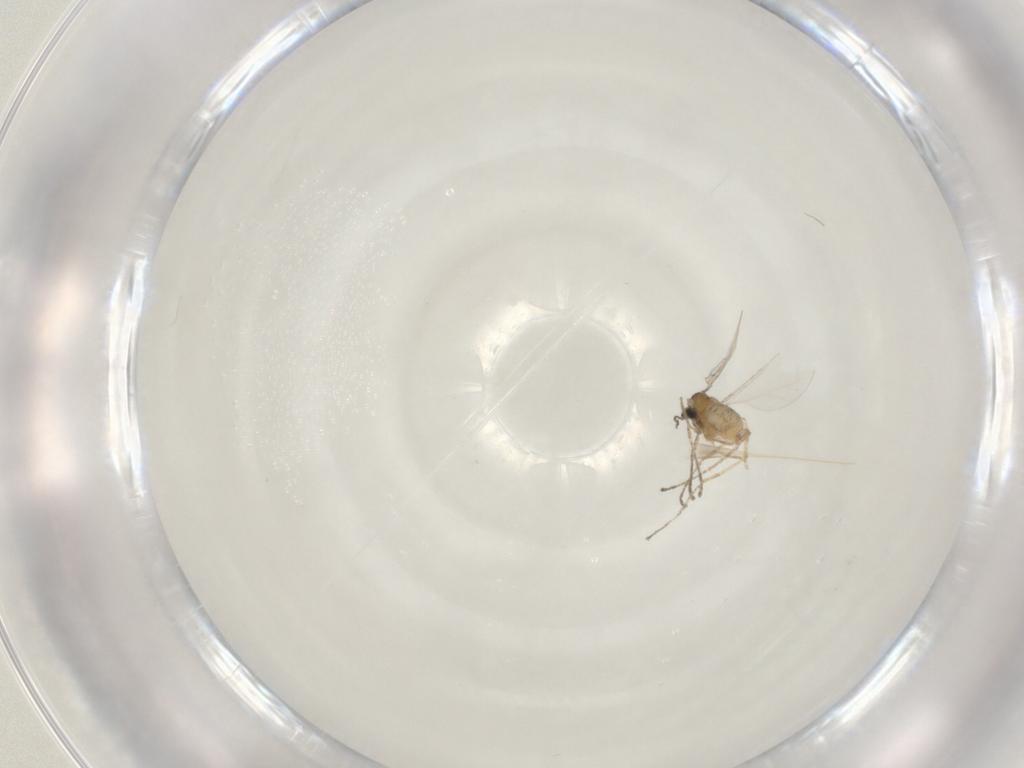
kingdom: Animalia
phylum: Arthropoda
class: Insecta
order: Diptera
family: Cecidomyiidae
